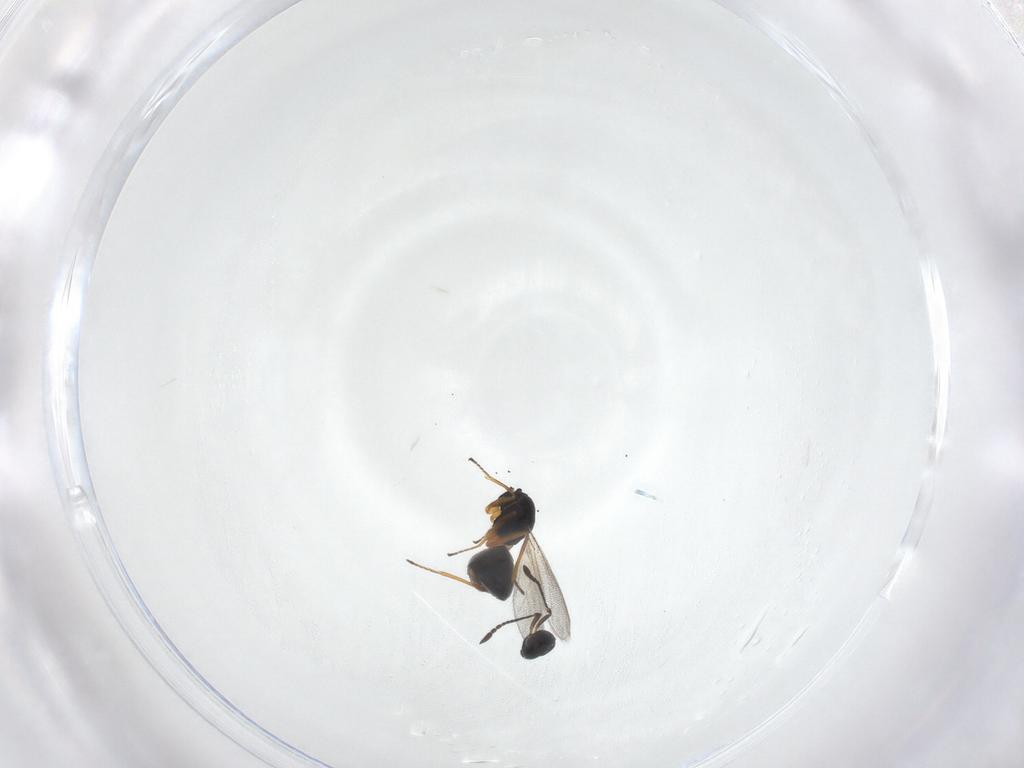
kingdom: Animalia
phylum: Arthropoda
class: Insecta
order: Hymenoptera
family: Mymaridae
